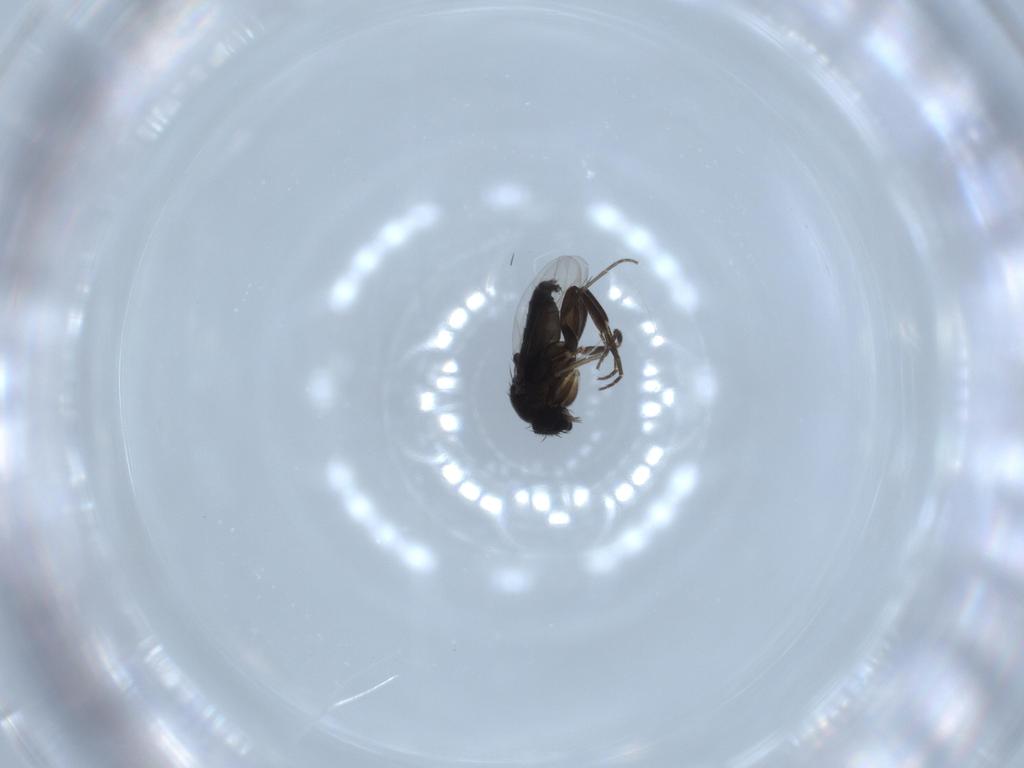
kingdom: Animalia
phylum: Arthropoda
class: Insecta
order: Diptera
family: Phoridae
